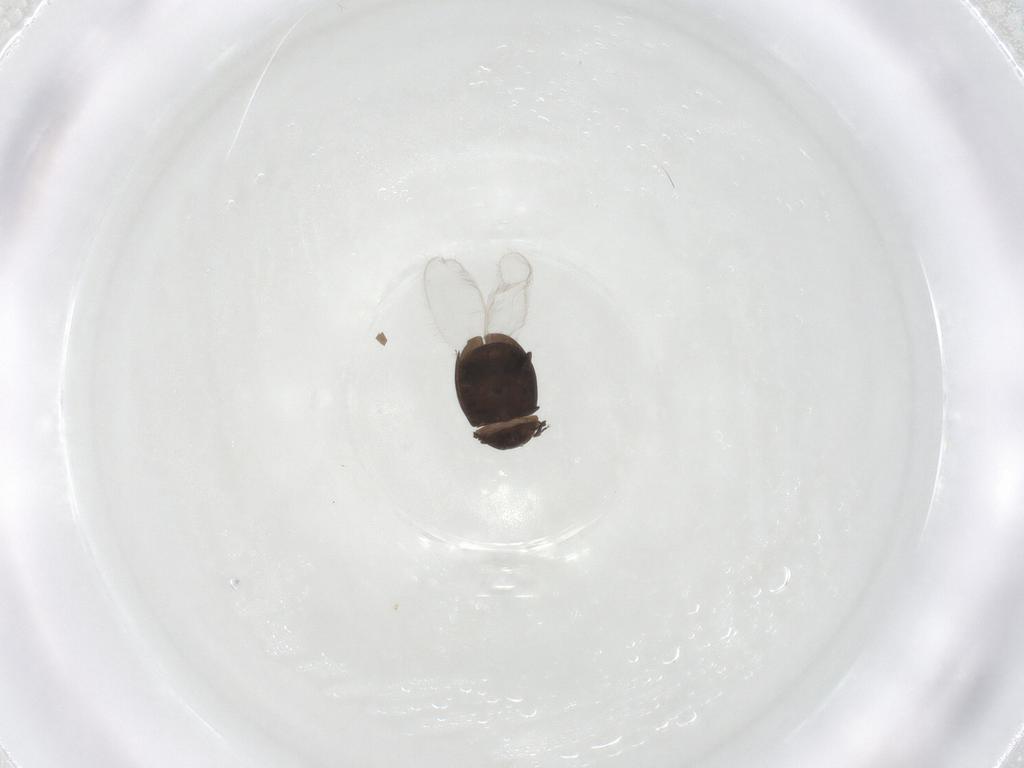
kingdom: Animalia
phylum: Arthropoda
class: Insecta
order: Coleoptera
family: Corylophidae
